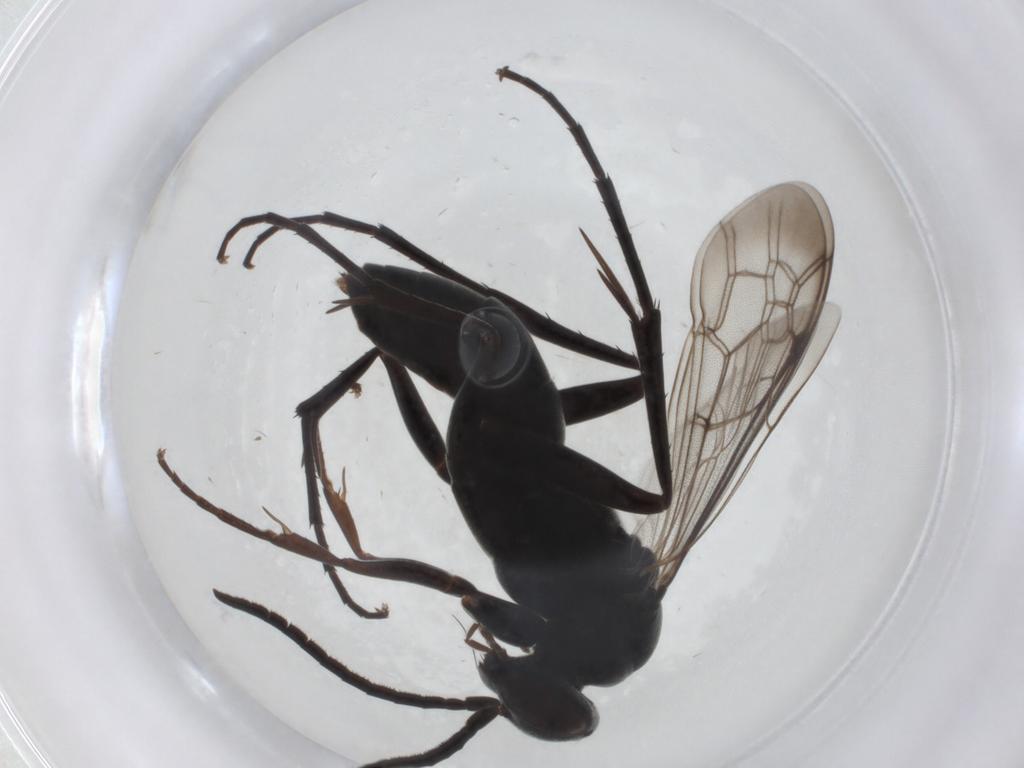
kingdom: Animalia
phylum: Arthropoda
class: Insecta
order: Hymenoptera
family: Pompilidae
